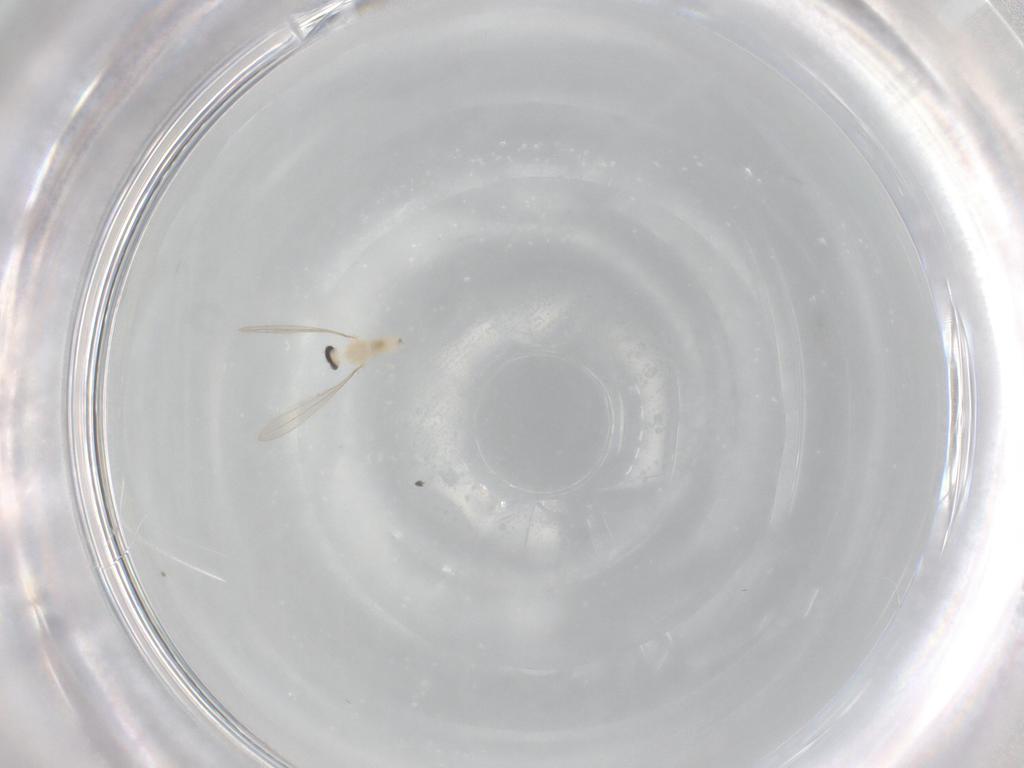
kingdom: Animalia
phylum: Arthropoda
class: Insecta
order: Diptera
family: Cecidomyiidae
